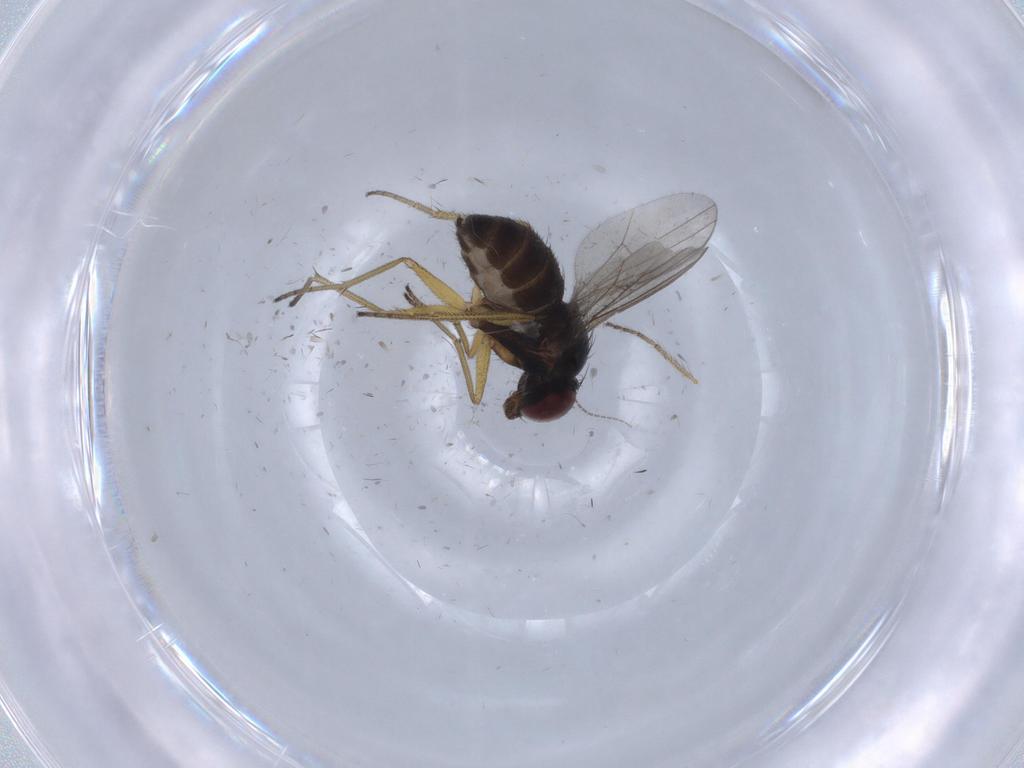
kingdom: Animalia
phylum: Arthropoda
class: Insecta
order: Diptera
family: Dolichopodidae
